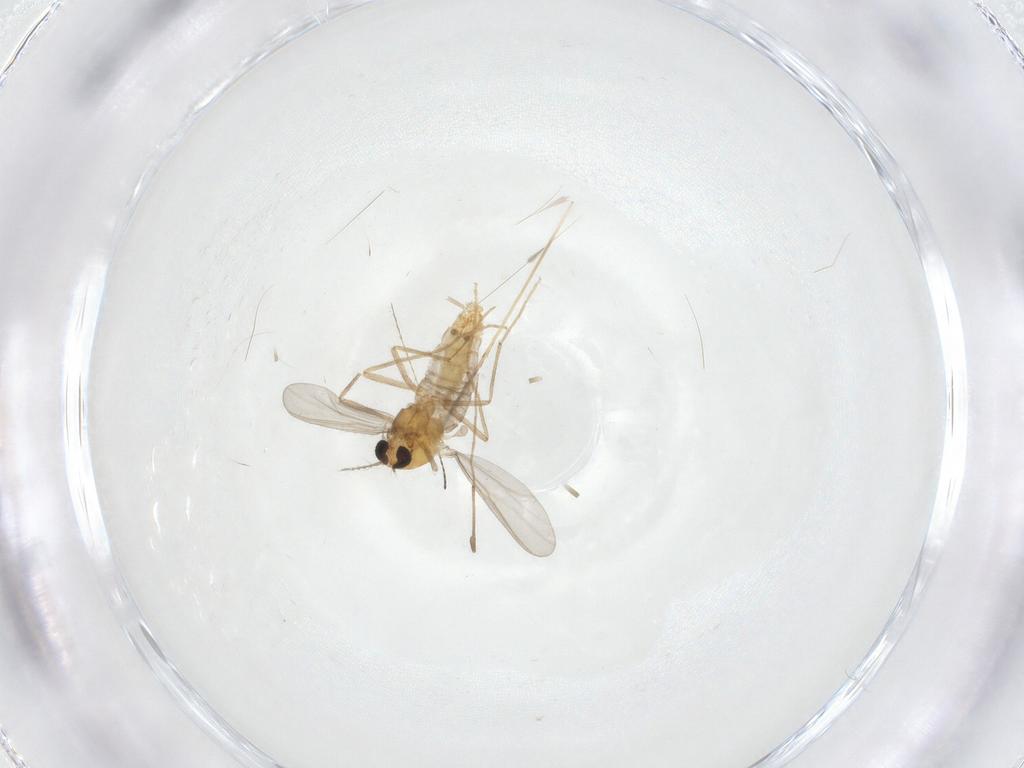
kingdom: Animalia
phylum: Arthropoda
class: Insecta
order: Diptera
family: Chironomidae
